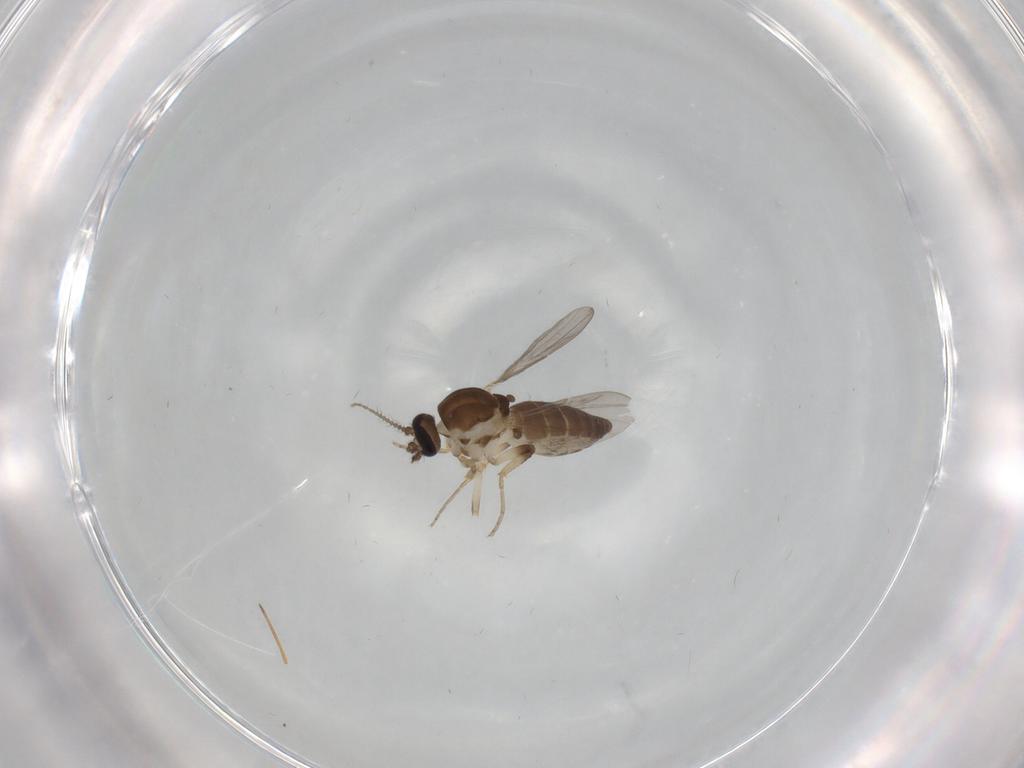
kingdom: Animalia
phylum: Arthropoda
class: Insecta
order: Diptera
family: Ceratopogonidae
